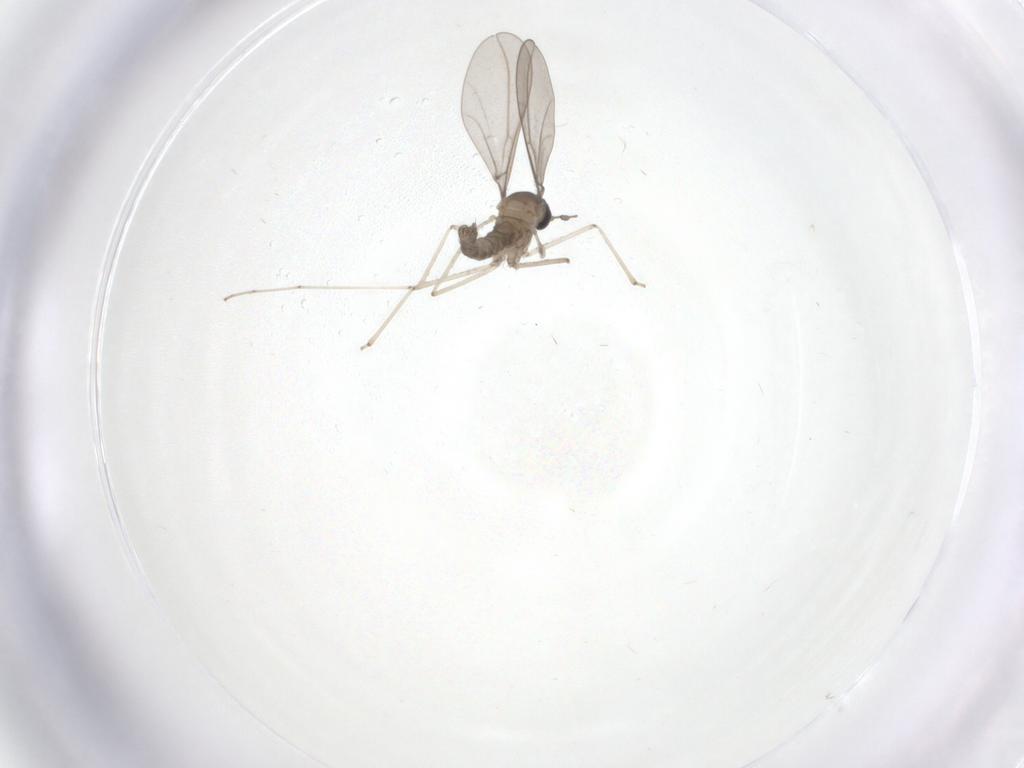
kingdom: Animalia
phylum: Arthropoda
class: Insecta
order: Diptera
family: Cecidomyiidae
